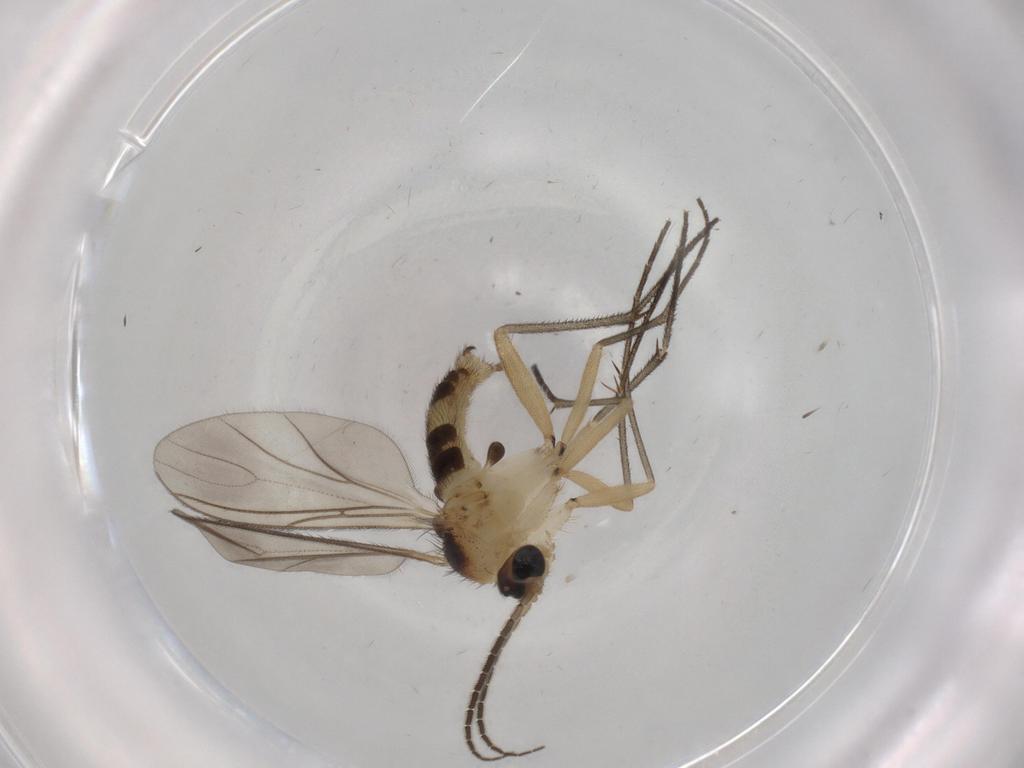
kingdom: Animalia
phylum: Arthropoda
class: Insecta
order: Diptera
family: Sciaridae
